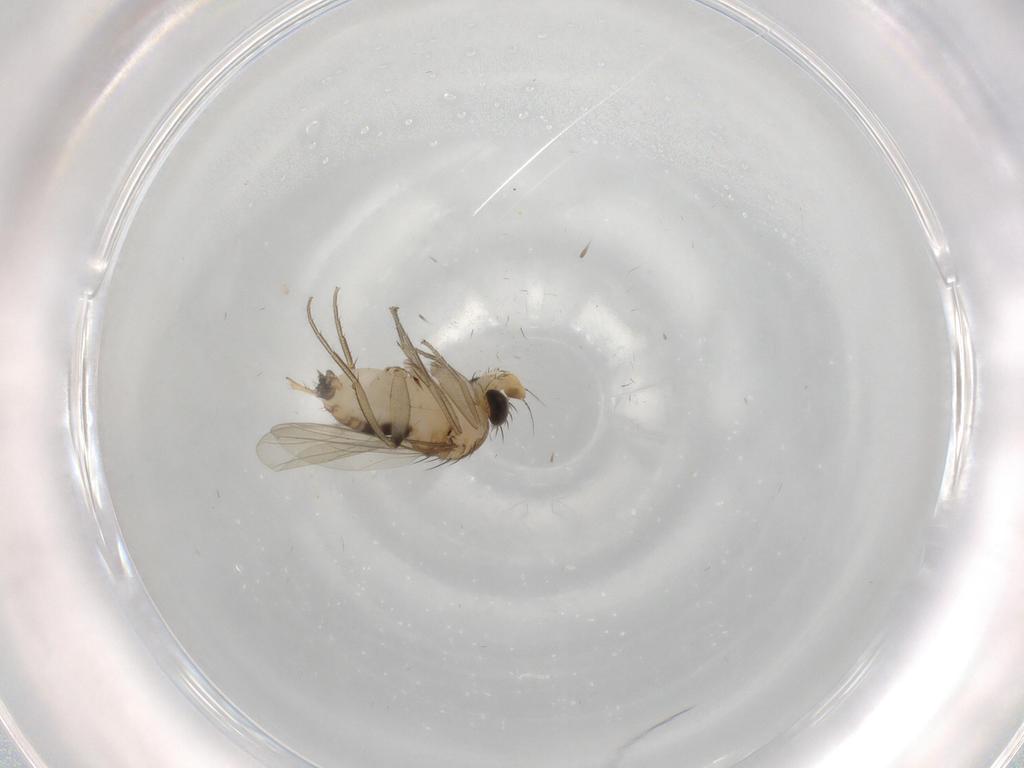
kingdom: Animalia
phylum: Arthropoda
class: Insecta
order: Diptera
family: Phoridae
